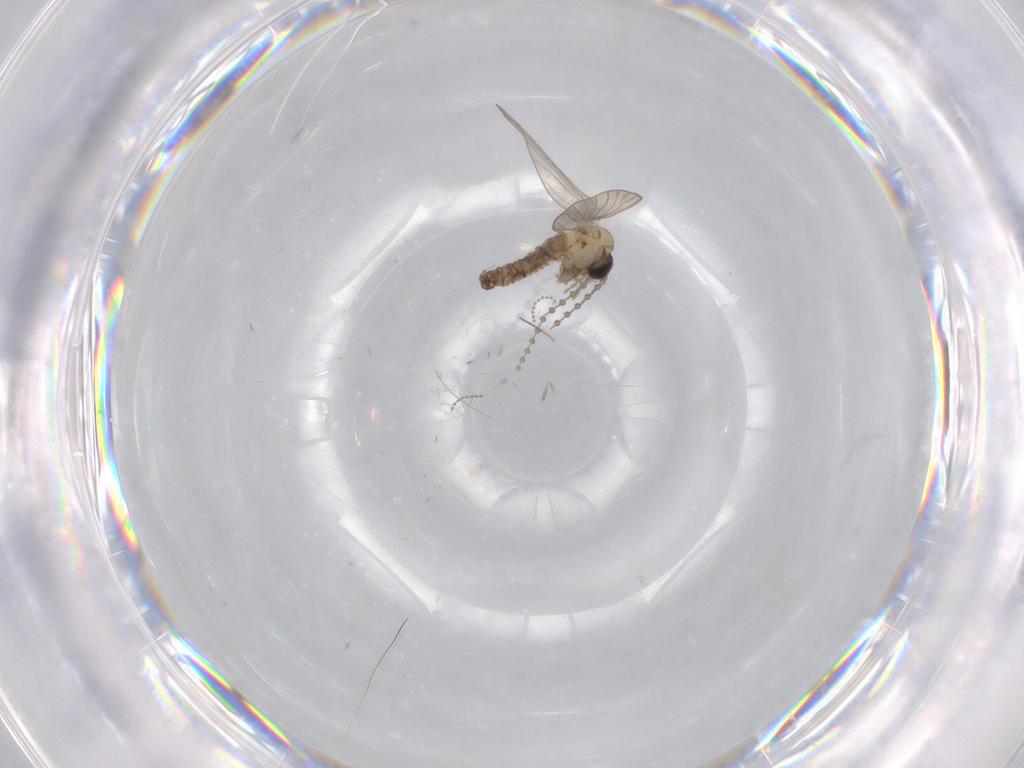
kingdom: Animalia
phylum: Arthropoda
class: Insecta
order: Diptera
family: Psychodidae
